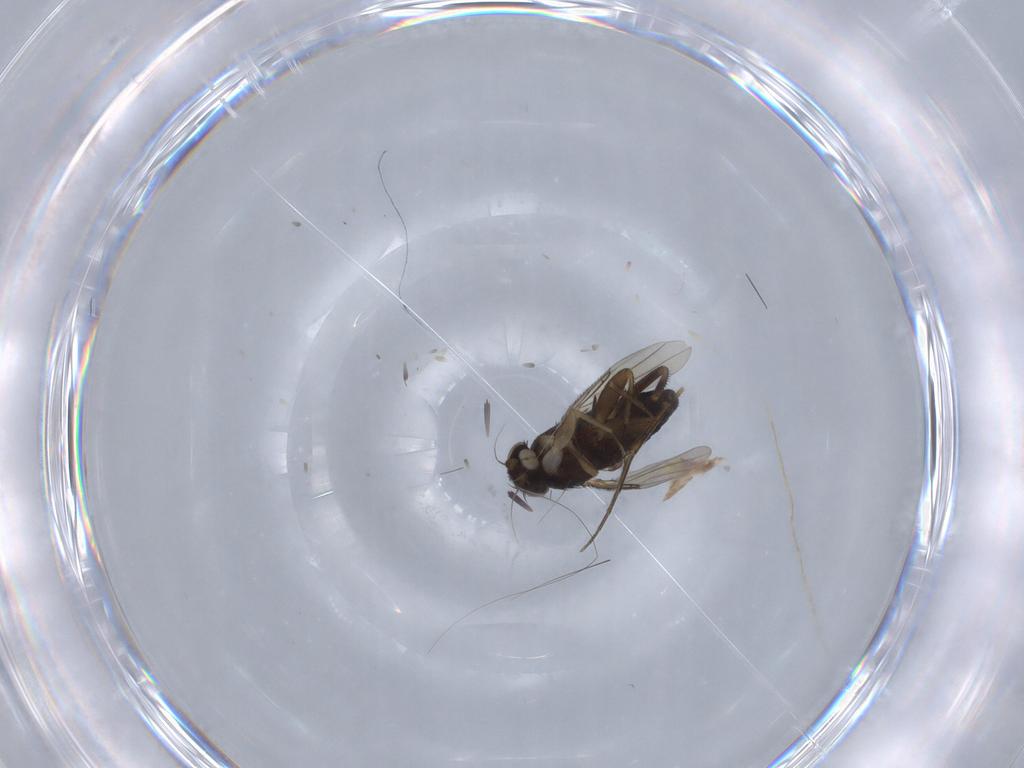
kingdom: Animalia
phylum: Arthropoda
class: Insecta
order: Diptera
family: Phoridae
